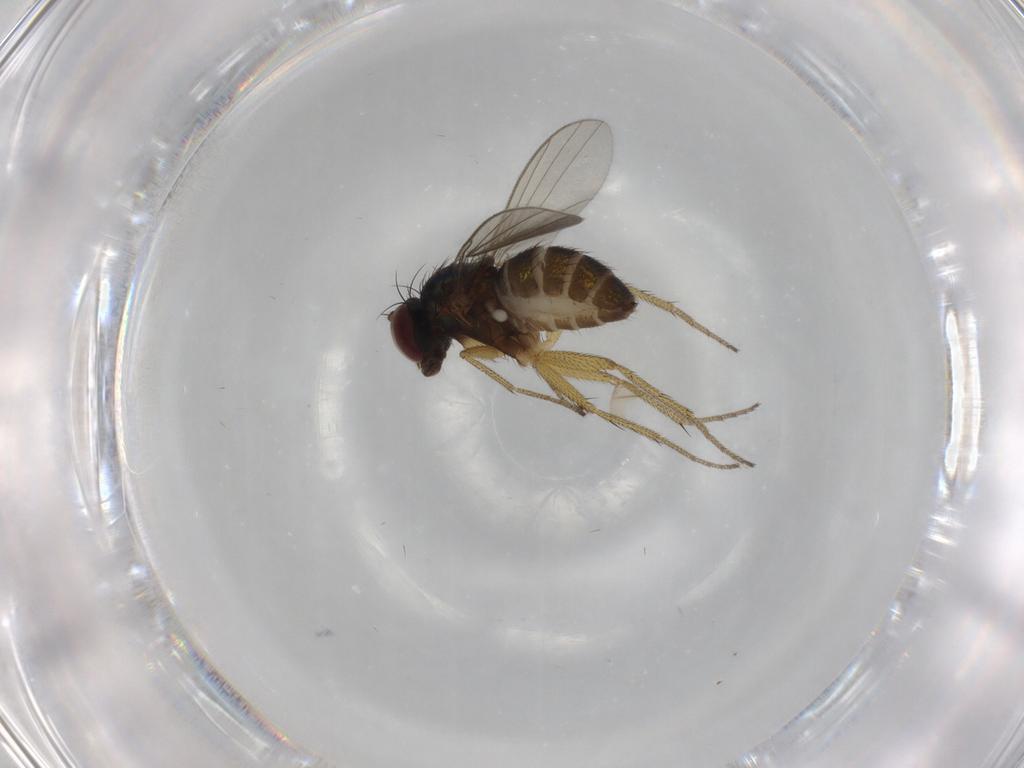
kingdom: Animalia
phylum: Arthropoda
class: Insecta
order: Diptera
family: Ceratopogonidae
